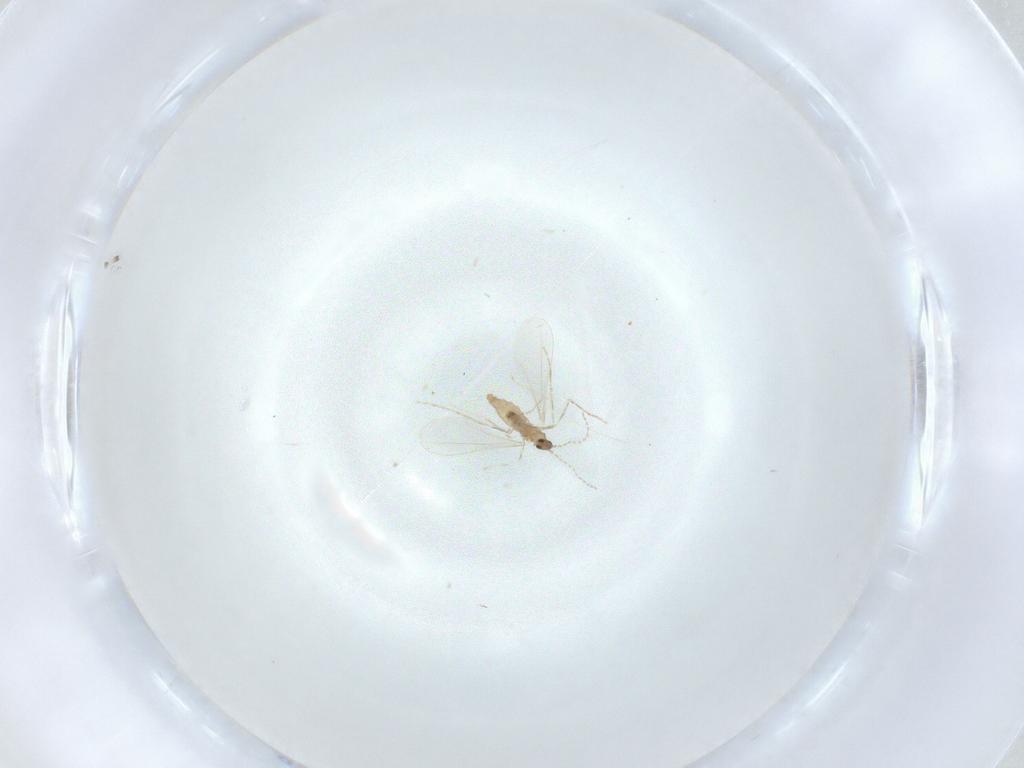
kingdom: Animalia
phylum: Arthropoda
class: Insecta
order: Diptera
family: Cecidomyiidae
